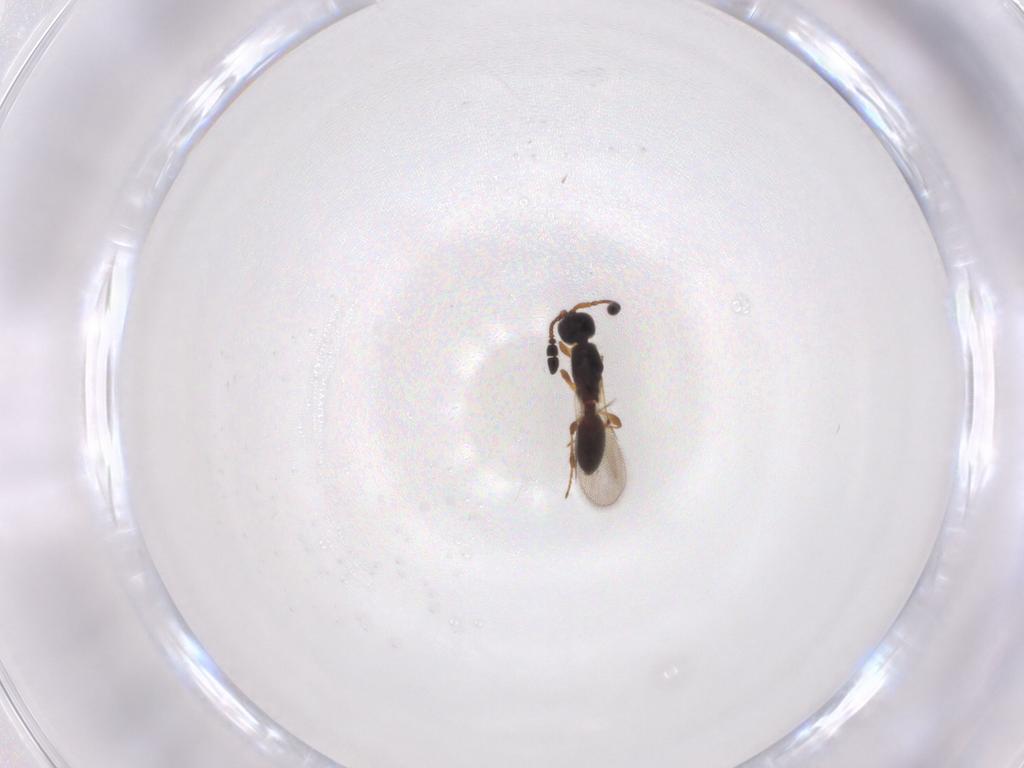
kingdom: Animalia
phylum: Arthropoda
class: Insecta
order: Hymenoptera
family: Diapriidae
